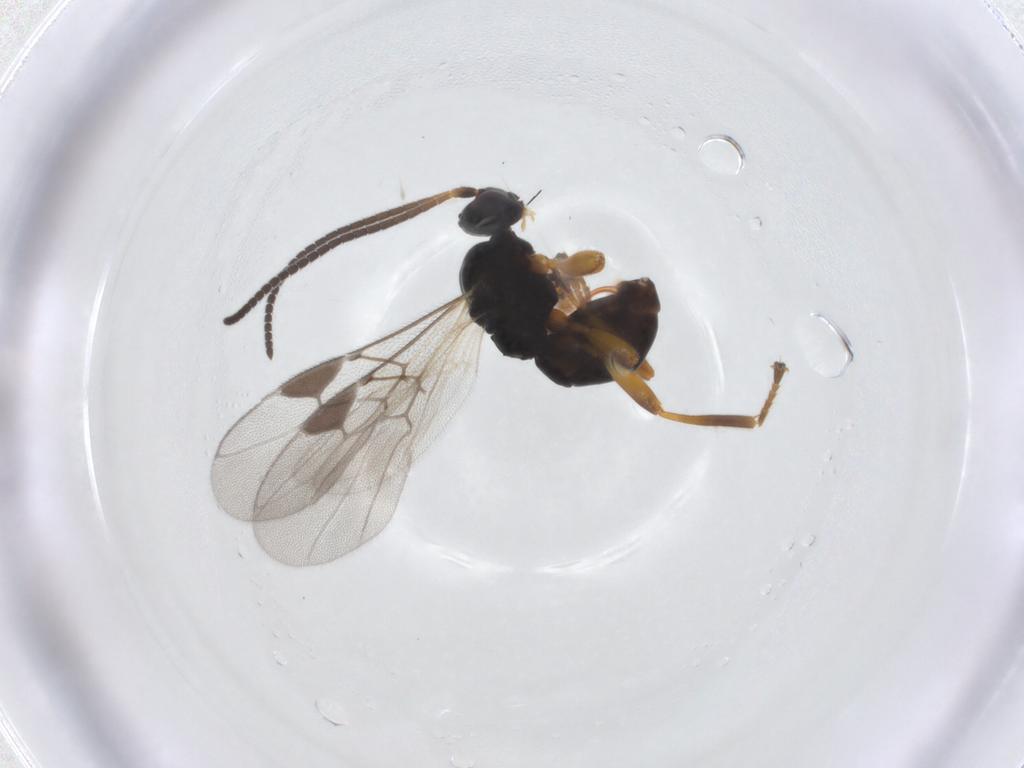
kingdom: Animalia
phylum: Arthropoda
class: Insecta
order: Hymenoptera
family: Braconidae
